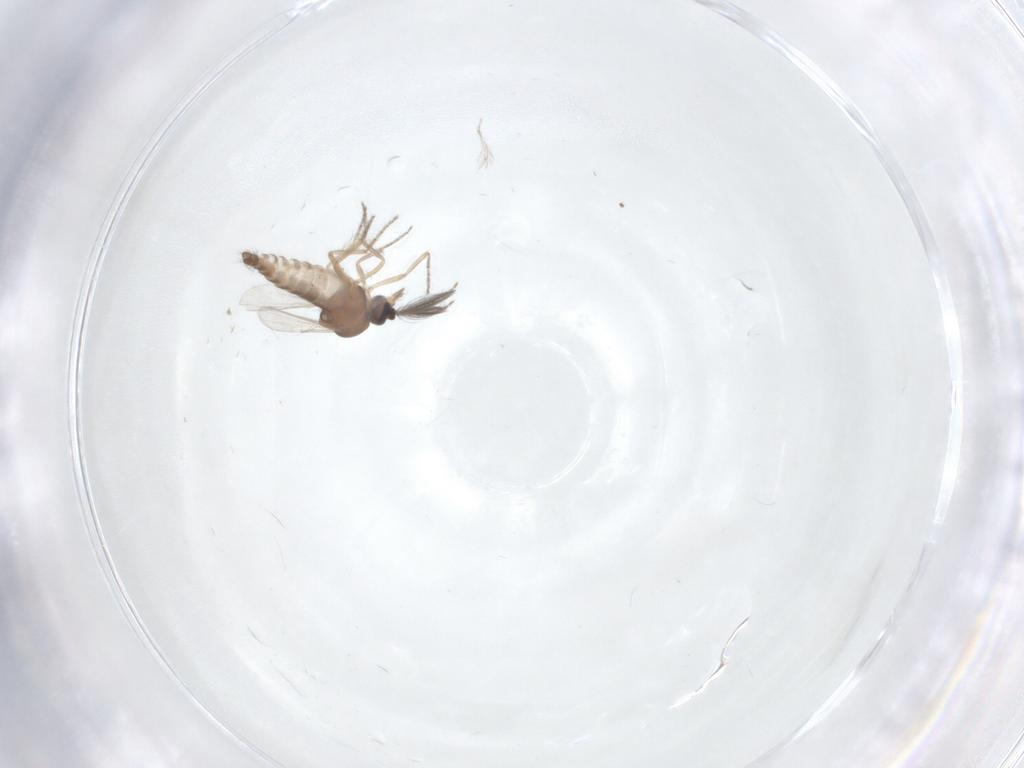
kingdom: Animalia
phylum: Arthropoda
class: Insecta
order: Diptera
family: Ceratopogonidae
